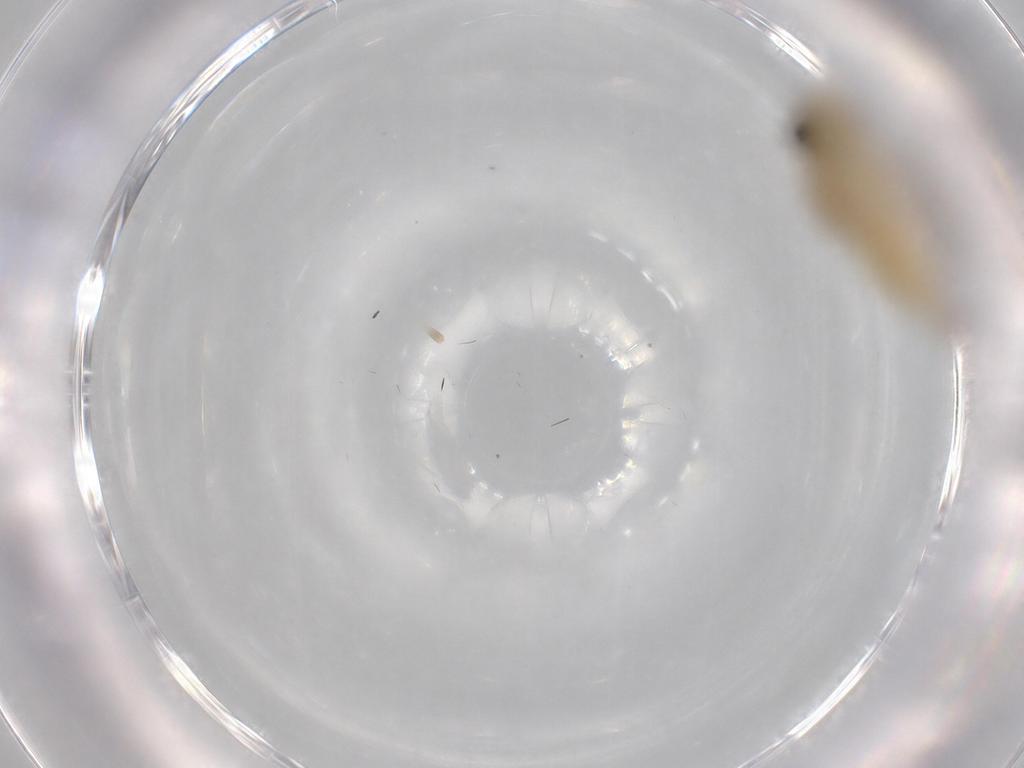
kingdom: Animalia
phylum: Arthropoda
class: Insecta
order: Psocodea
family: Caeciliusidae
